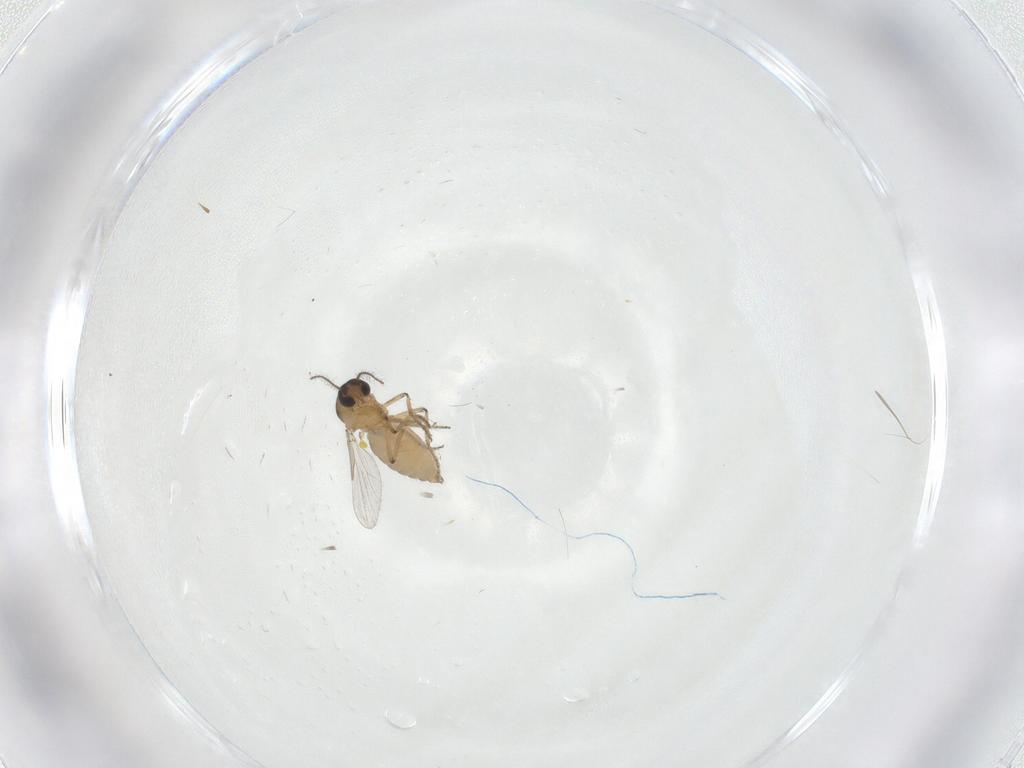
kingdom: Animalia
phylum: Arthropoda
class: Insecta
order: Diptera
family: Ceratopogonidae
